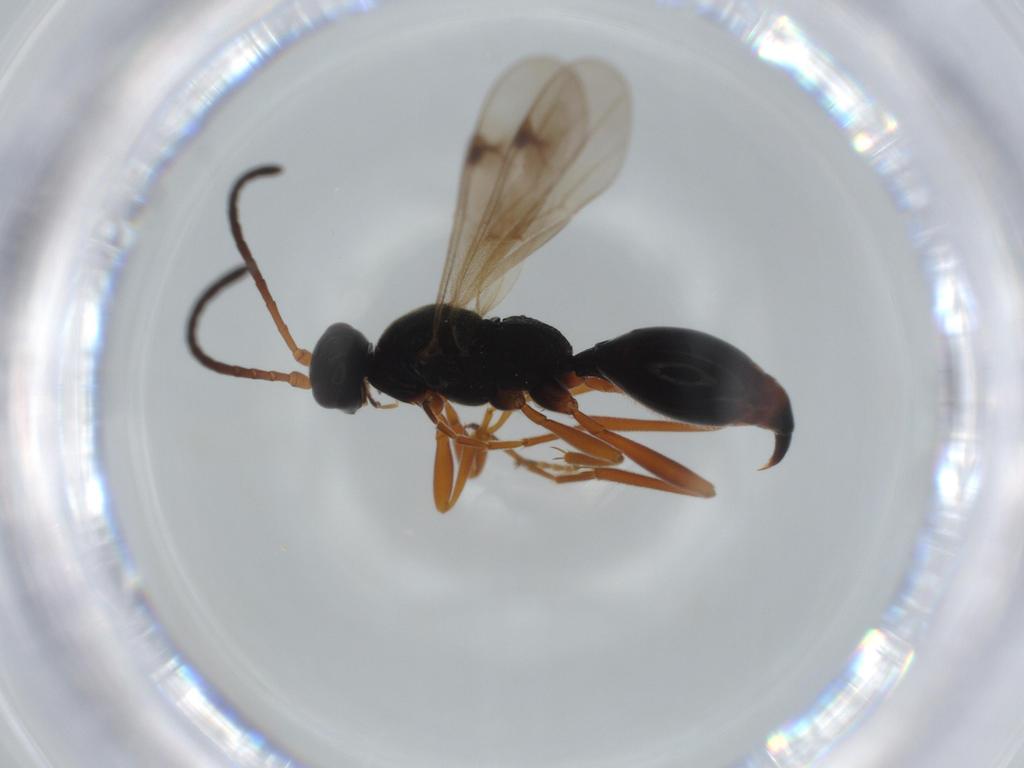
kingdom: Animalia
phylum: Arthropoda
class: Insecta
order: Hymenoptera
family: Braconidae
